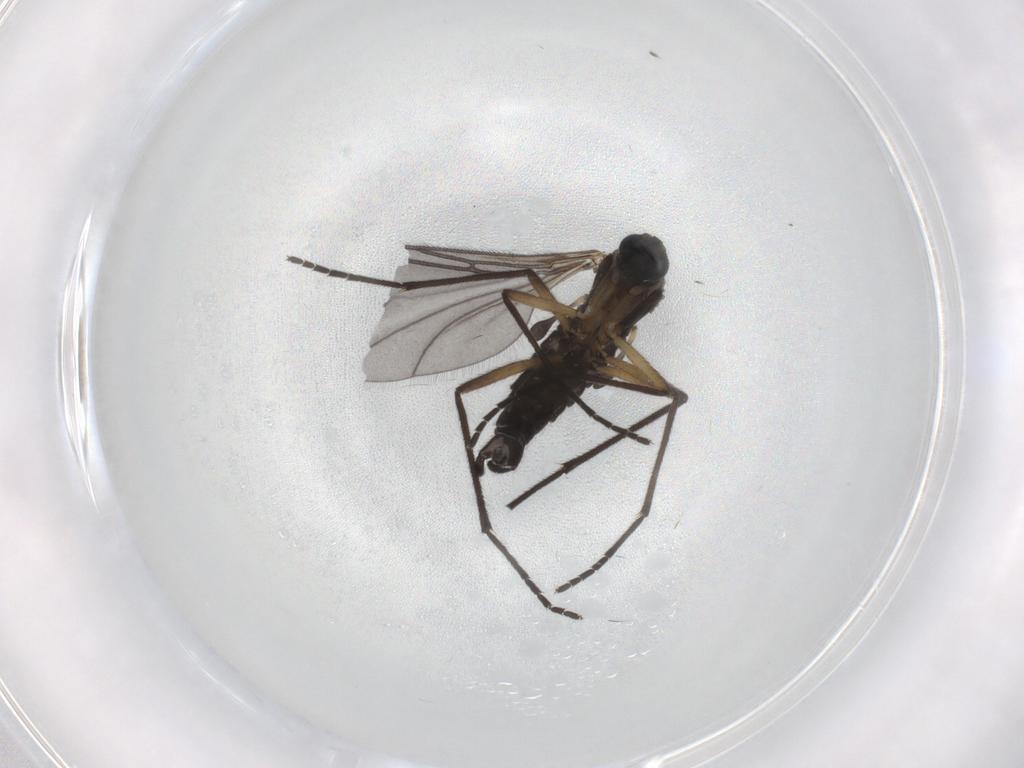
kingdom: Animalia
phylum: Arthropoda
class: Insecta
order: Diptera
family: Sciaridae
